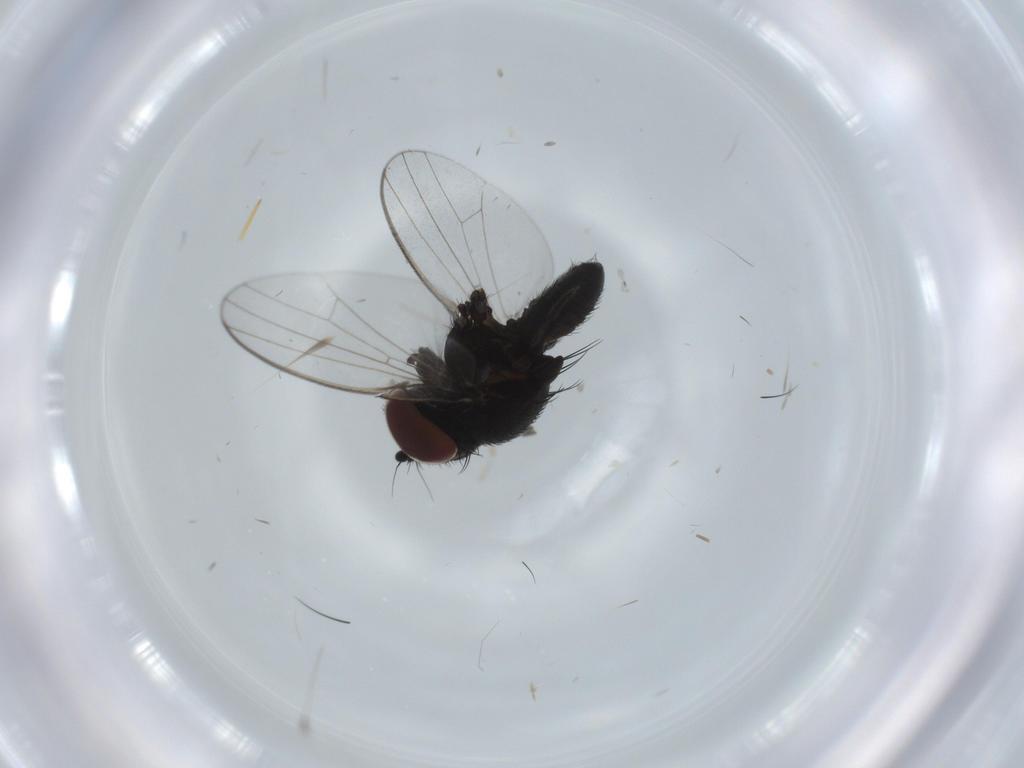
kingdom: Animalia
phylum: Arthropoda
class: Insecta
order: Diptera
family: Milichiidae
